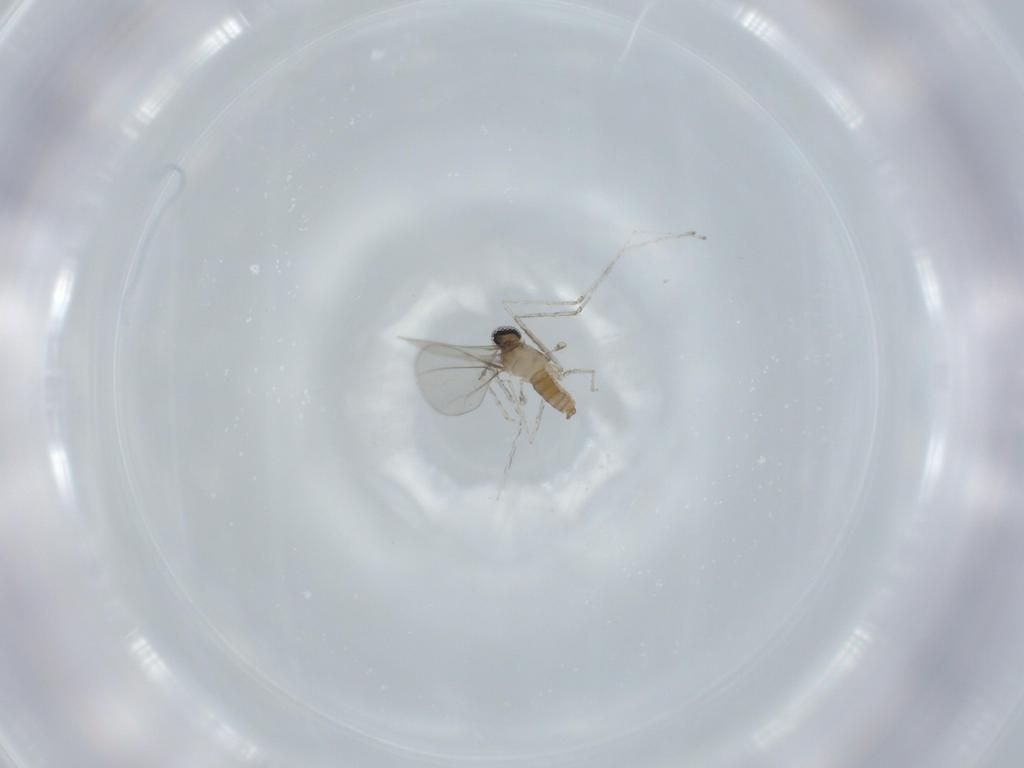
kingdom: Animalia
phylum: Arthropoda
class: Insecta
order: Diptera
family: Cecidomyiidae
